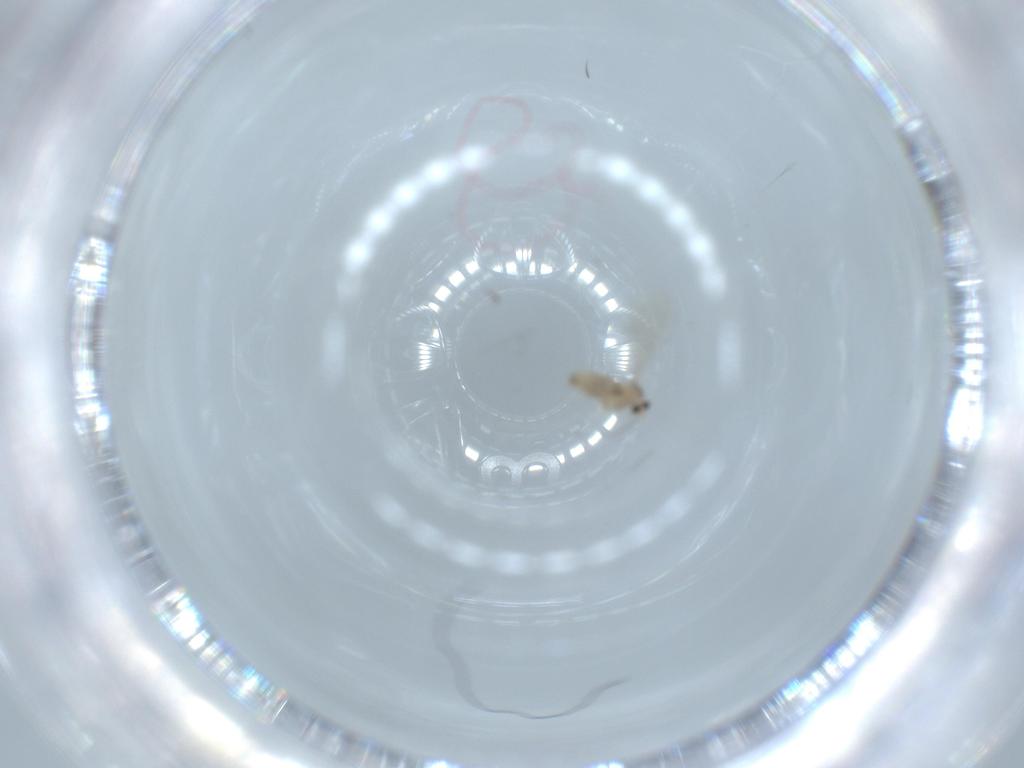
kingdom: Animalia
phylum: Arthropoda
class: Insecta
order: Diptera
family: Cecidomyiidae
